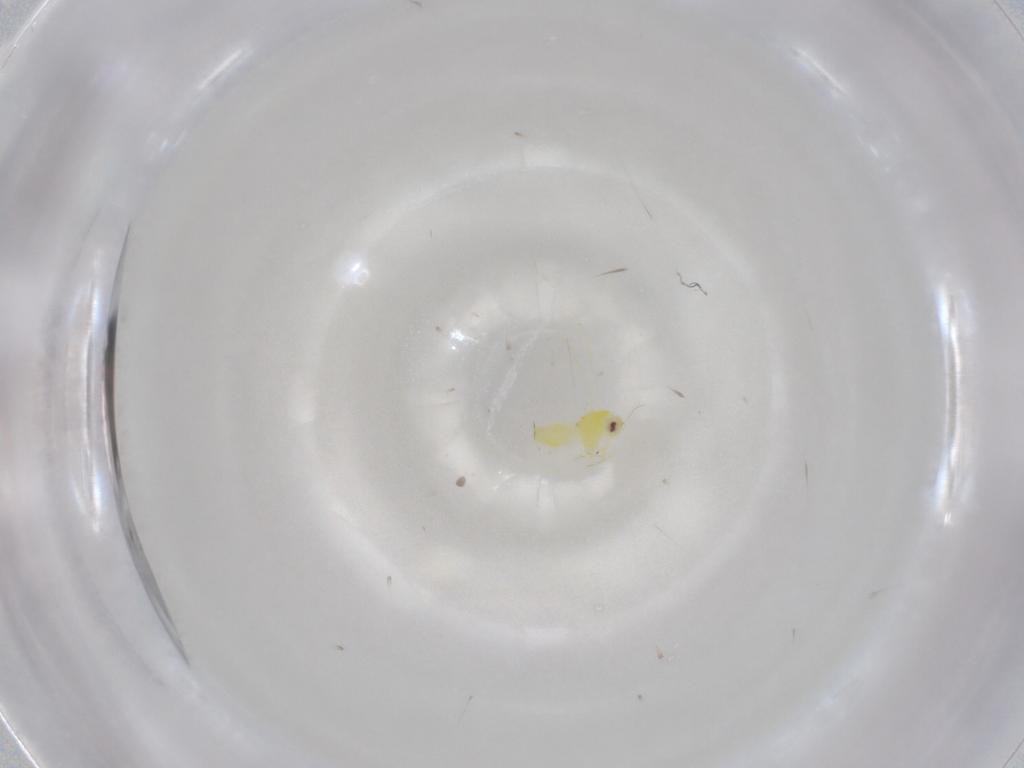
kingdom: Animalia
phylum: Arthropoda
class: Insecta
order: Hemiptera
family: Aleyrodidae
